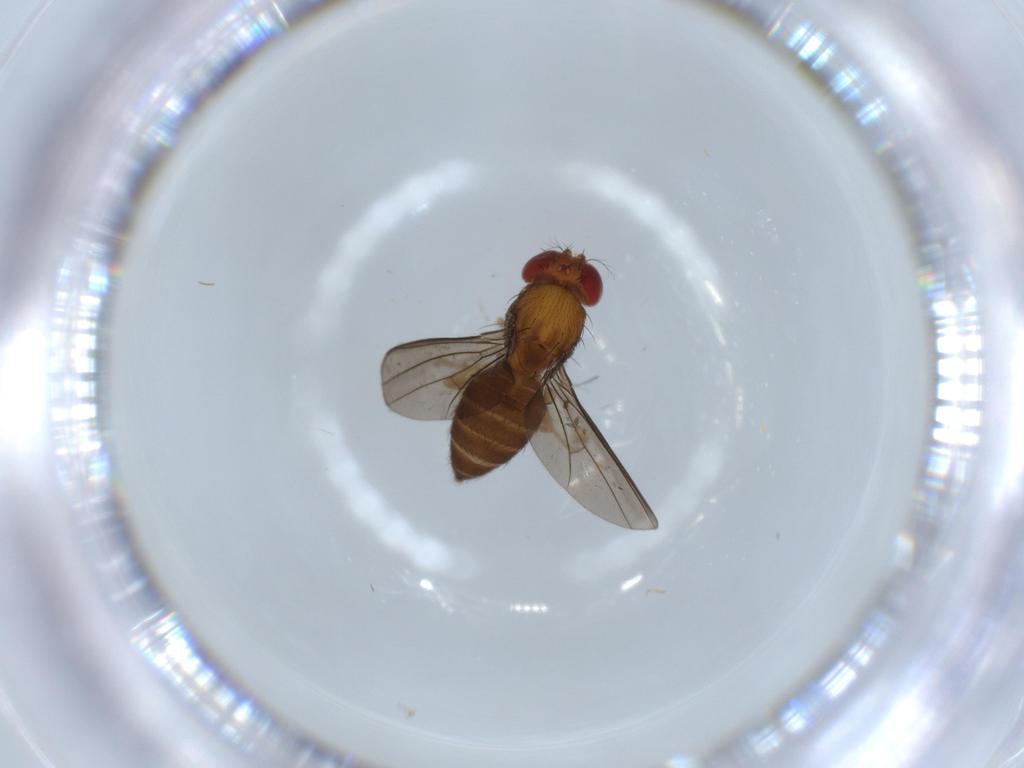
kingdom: Animalia
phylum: Arthropoda
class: Insecta
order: Diptera
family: Drosophilidae
